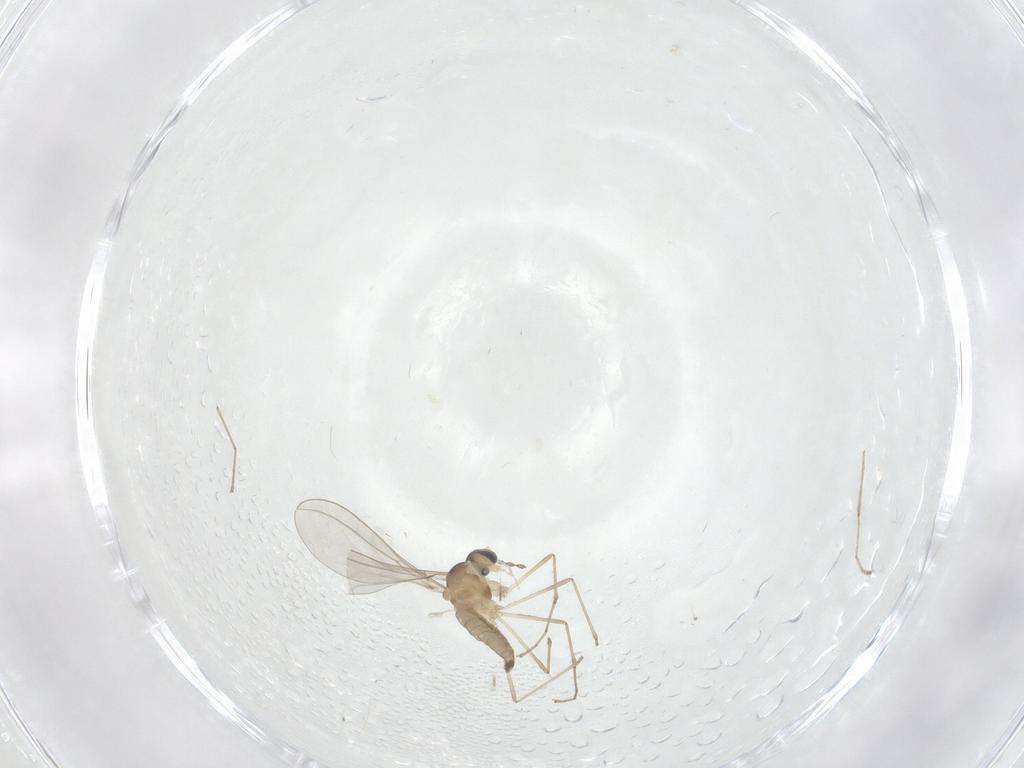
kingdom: Animalia
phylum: Arthropoda
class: Insecta
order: Diptera
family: Cecidomyiidae
